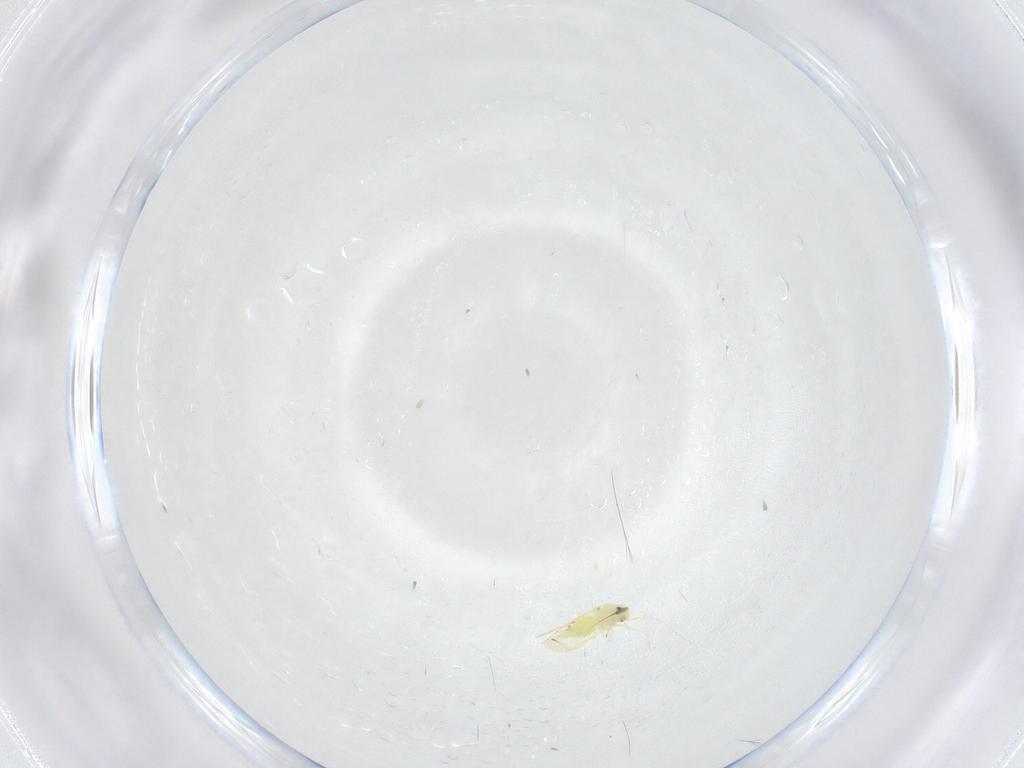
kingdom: Animalia
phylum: Arthropoda
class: Insecta
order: Hemiptera
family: Aleyrodidae
